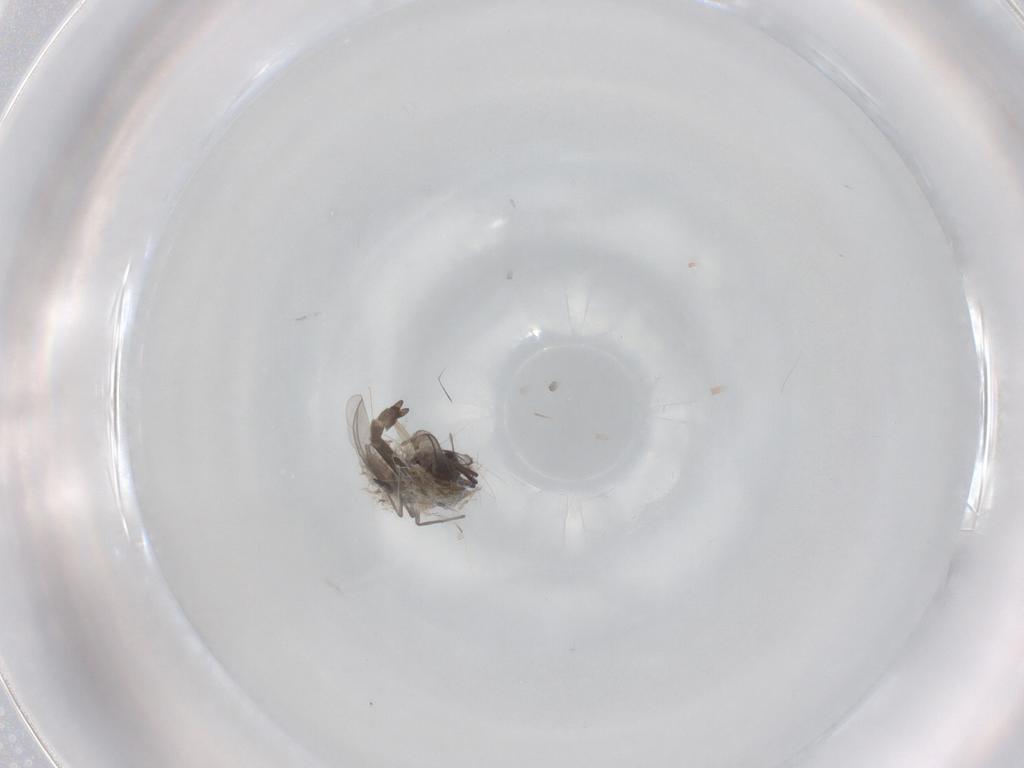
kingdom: Animalia
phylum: Arthropoda
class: Insecta
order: Diptera
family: Chironomidae
